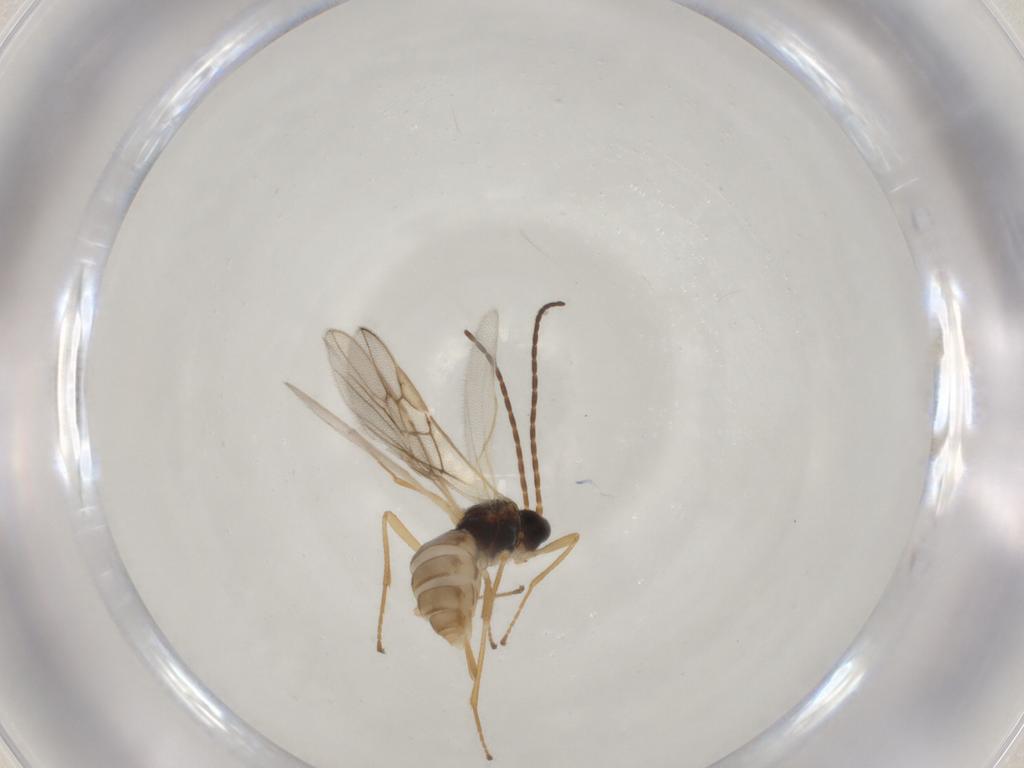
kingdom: Animalia
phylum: Arthropoda
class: Insecta
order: Hymenoptera
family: Braconidae
